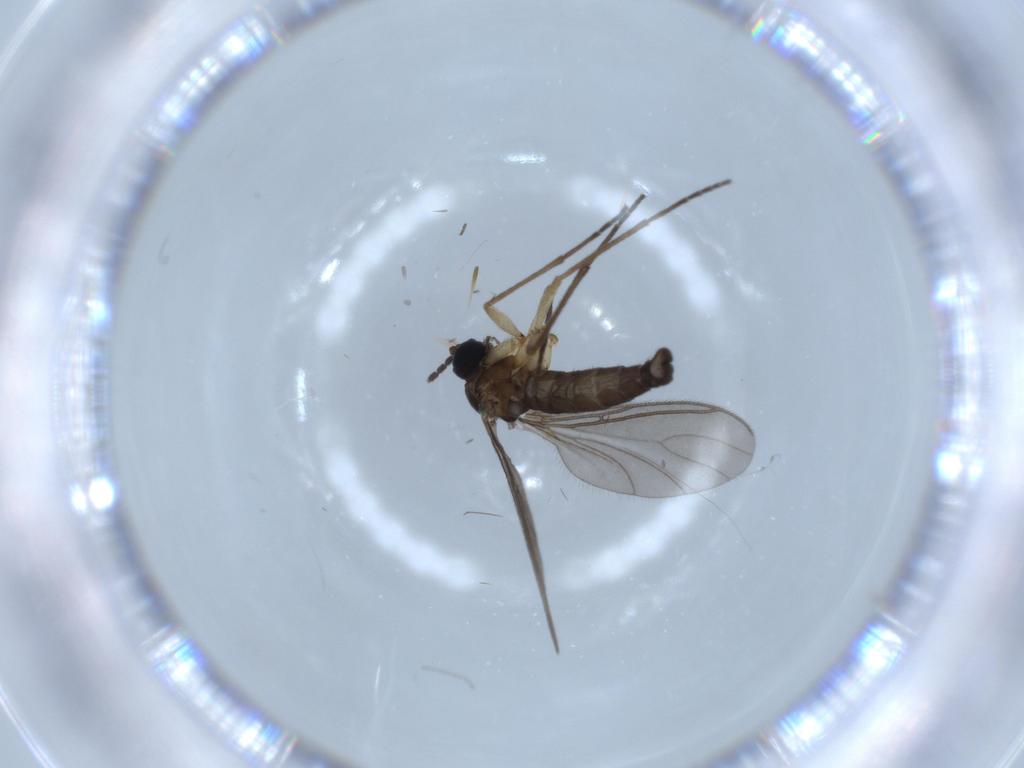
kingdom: Animalia
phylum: Arthropoda
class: Insecta
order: Diptera
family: Sciaridae
